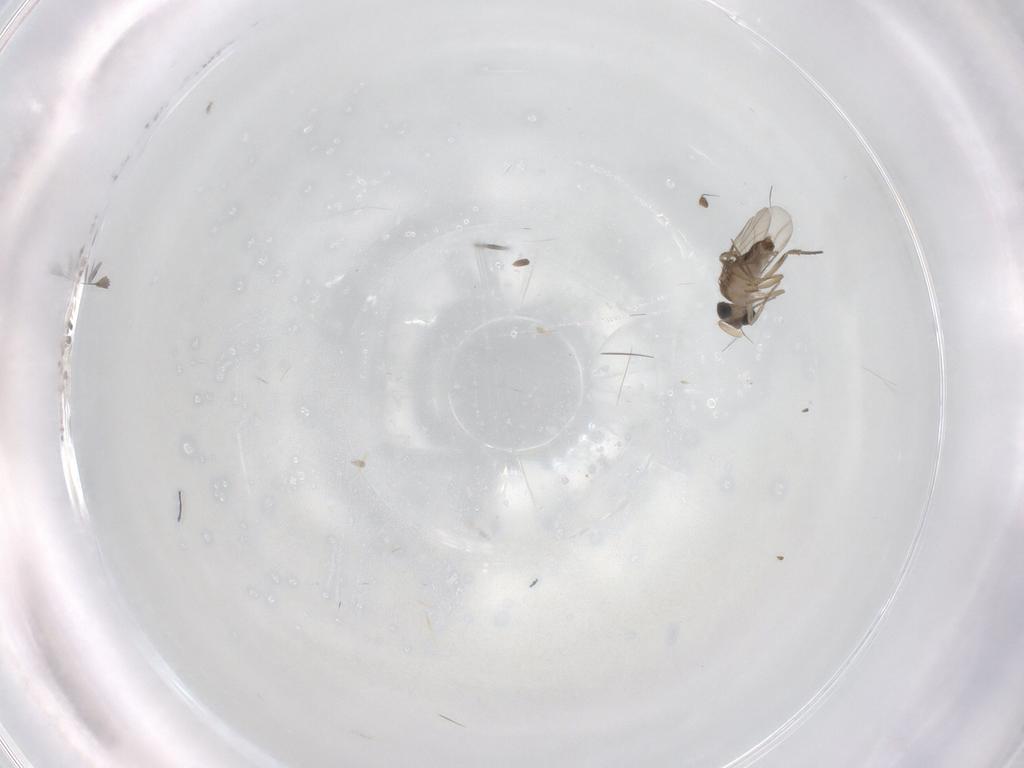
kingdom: Animalia
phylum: Arthropoda
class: Insecta
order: Diptera
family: Phoridae
